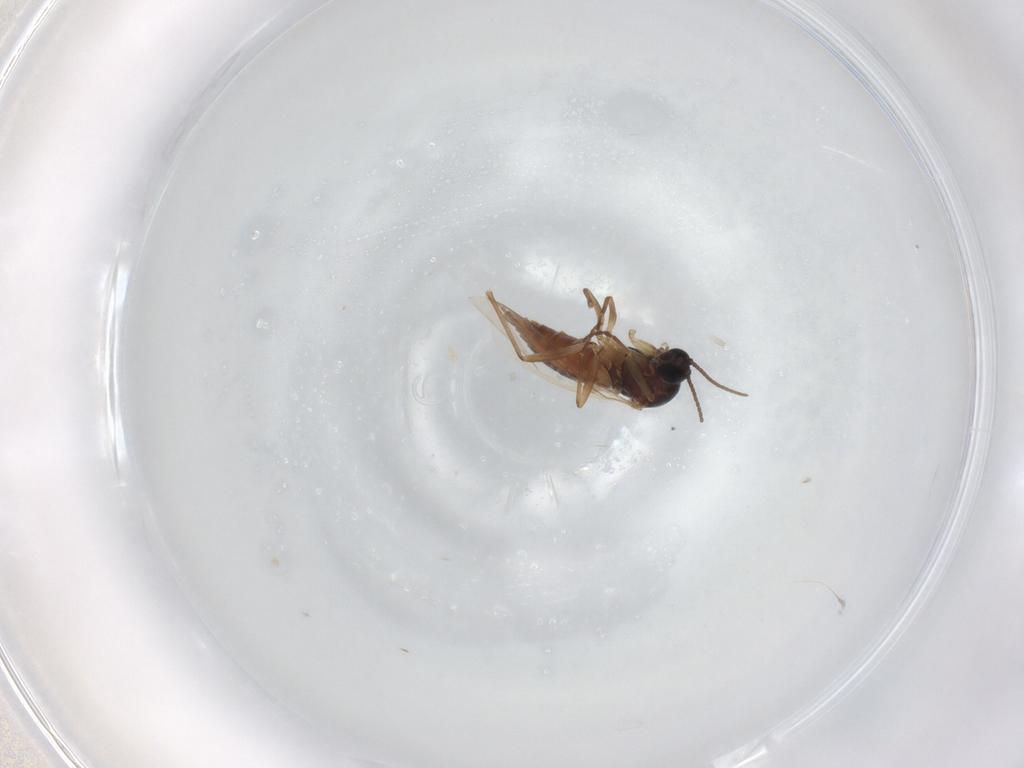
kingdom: Animalia
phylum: Arthropoda
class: Insecta
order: Diptera
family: Sciaridae
